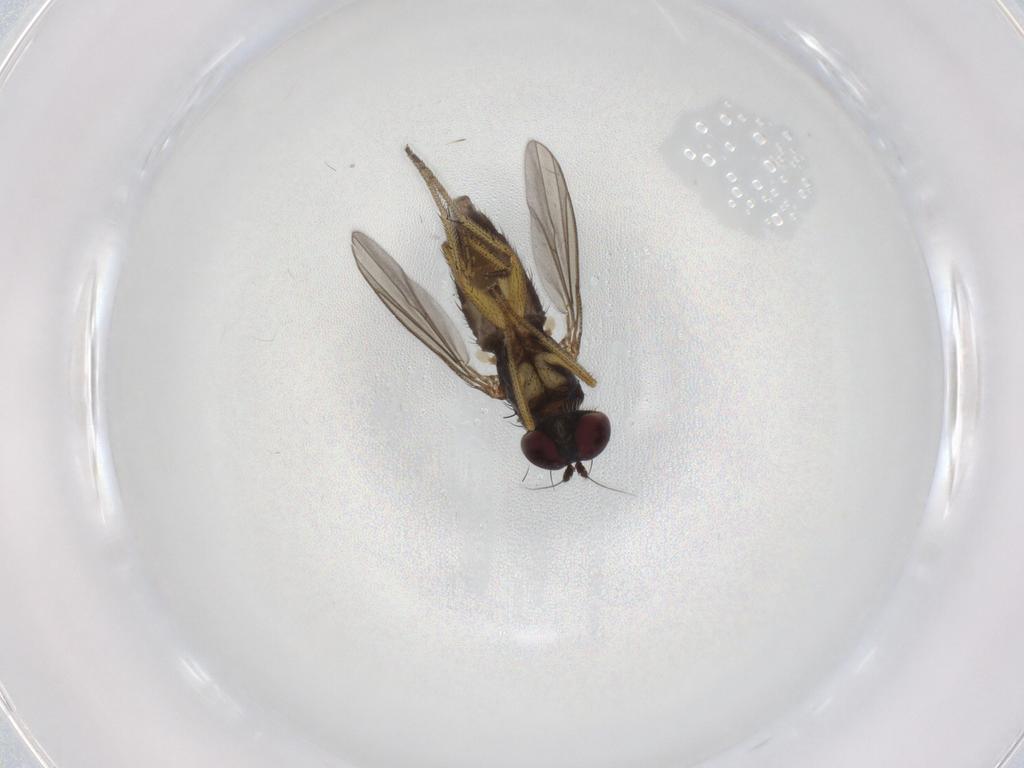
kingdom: Animalia
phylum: Arthropoda
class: Insecta
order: Diptera
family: Dolichopodidae
